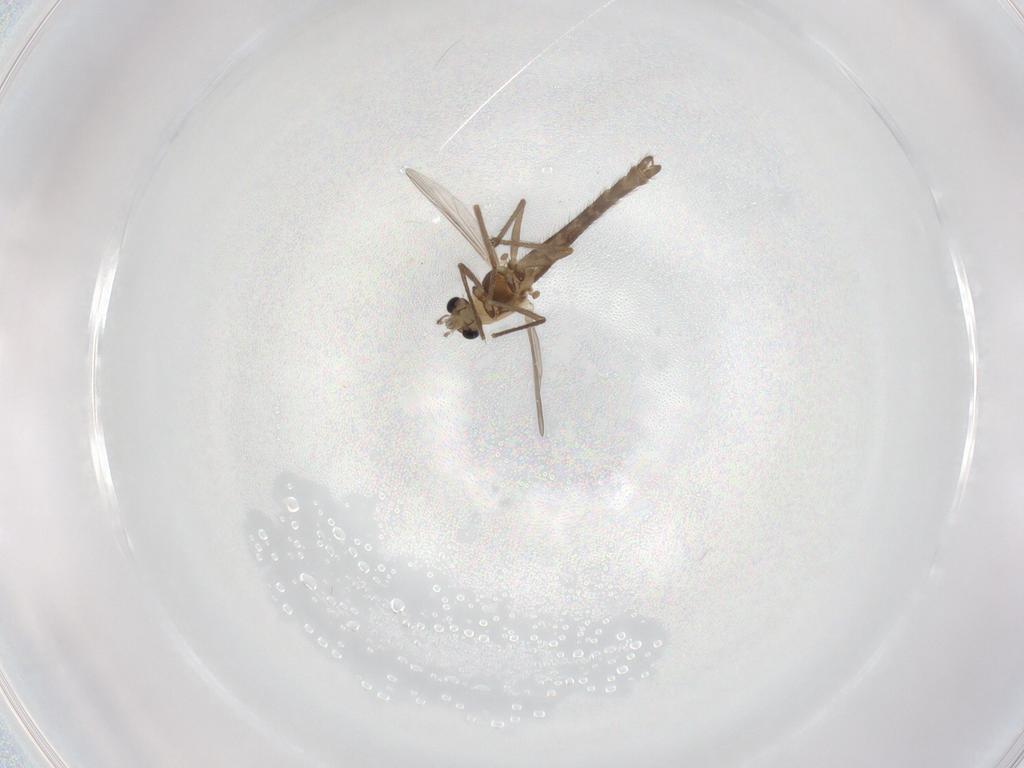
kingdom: Animalia
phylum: Arthropoda
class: Insecta
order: Diptera
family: Chironomidae
